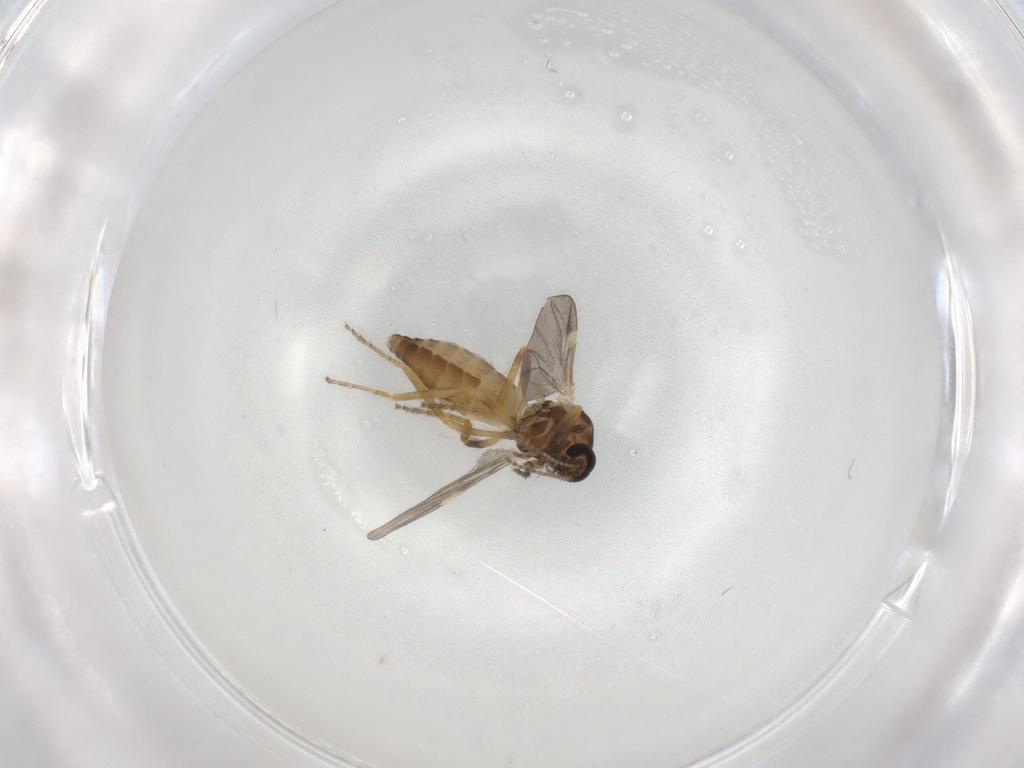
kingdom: Animalia
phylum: Arthropoda
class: Insecta
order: Diptera
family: Ceratopogonidae
